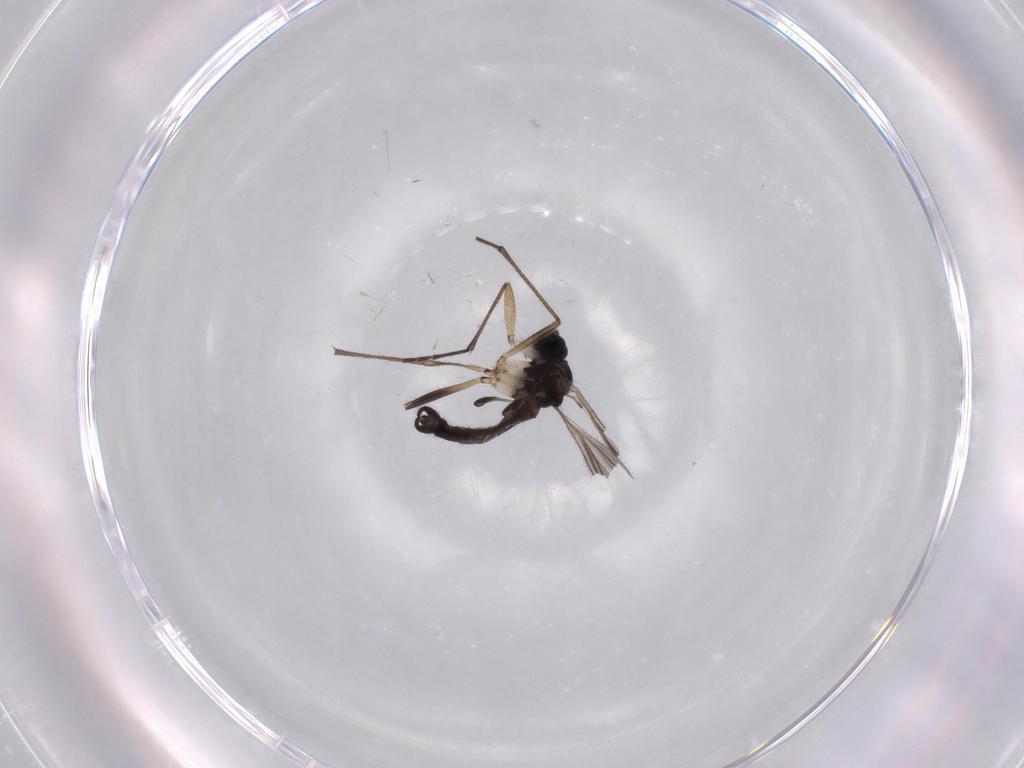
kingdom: Animalia
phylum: Arthropoda
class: Insecta
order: Diptera
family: Sciaridae
